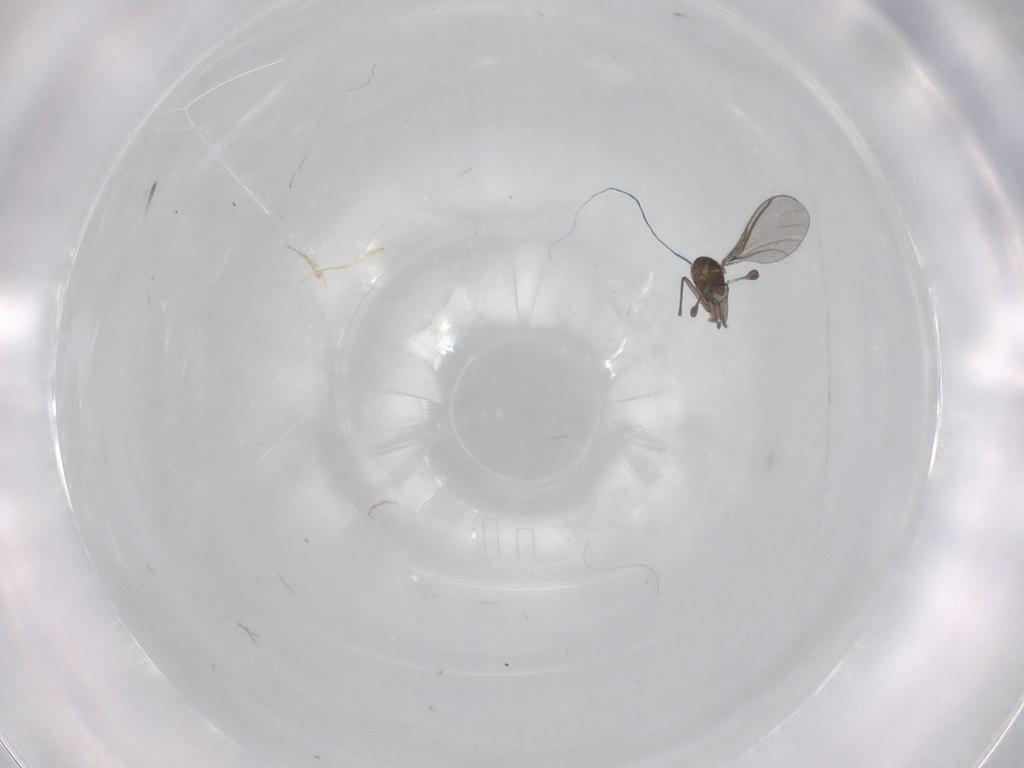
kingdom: Animalia
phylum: Arthropoda
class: Insecta
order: Diptera
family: Sciaridae
